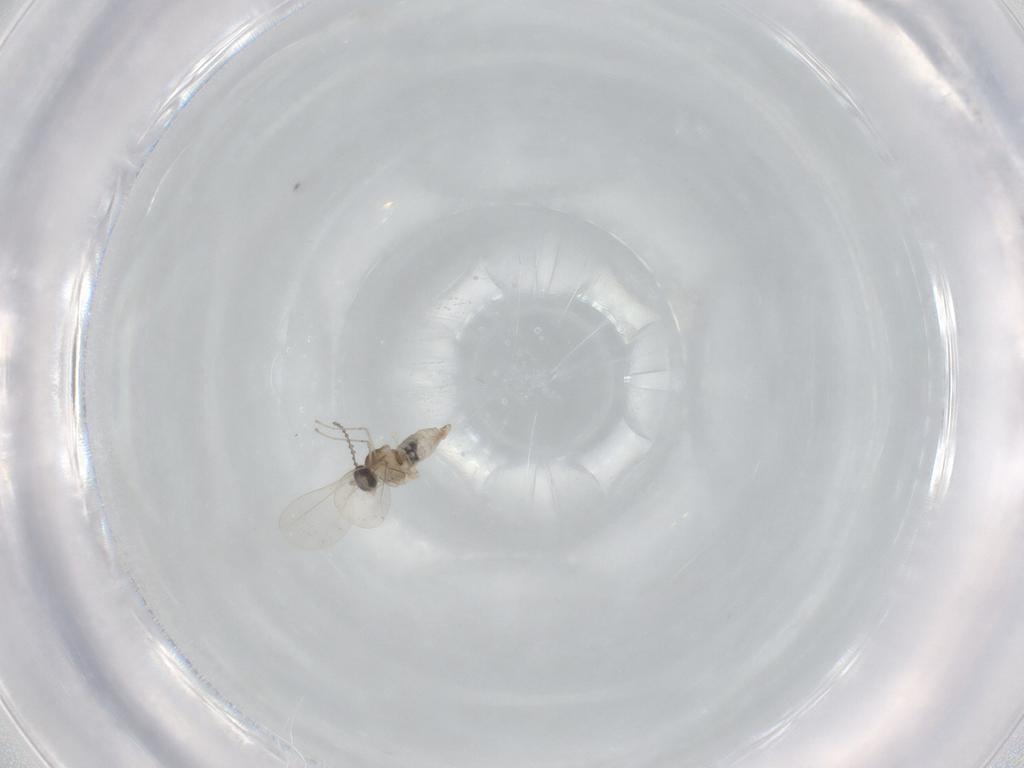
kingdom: Animalia
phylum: Arthropoda
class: Insecta
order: Diptera
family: Cecidomyiidae
